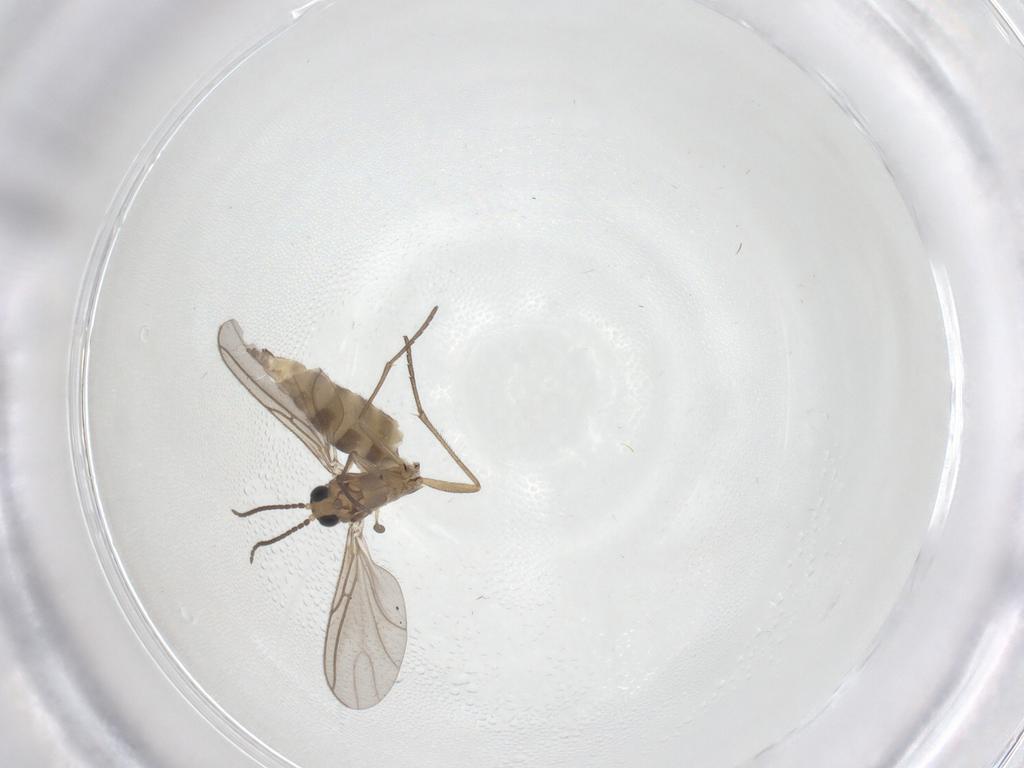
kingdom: Animalia
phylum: Arthropoda
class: Insecta
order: Diptera
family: Sciaridae
